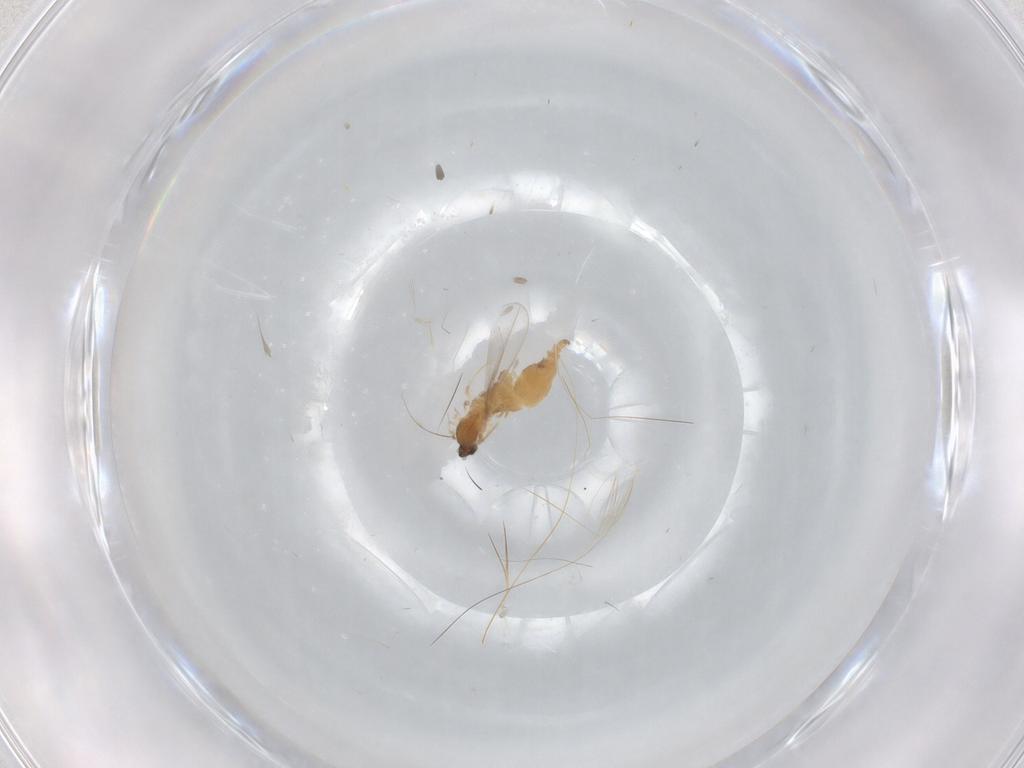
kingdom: Animalia
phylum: Arthropoda
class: Insecta
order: Diptera
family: Cecidomyiidae
